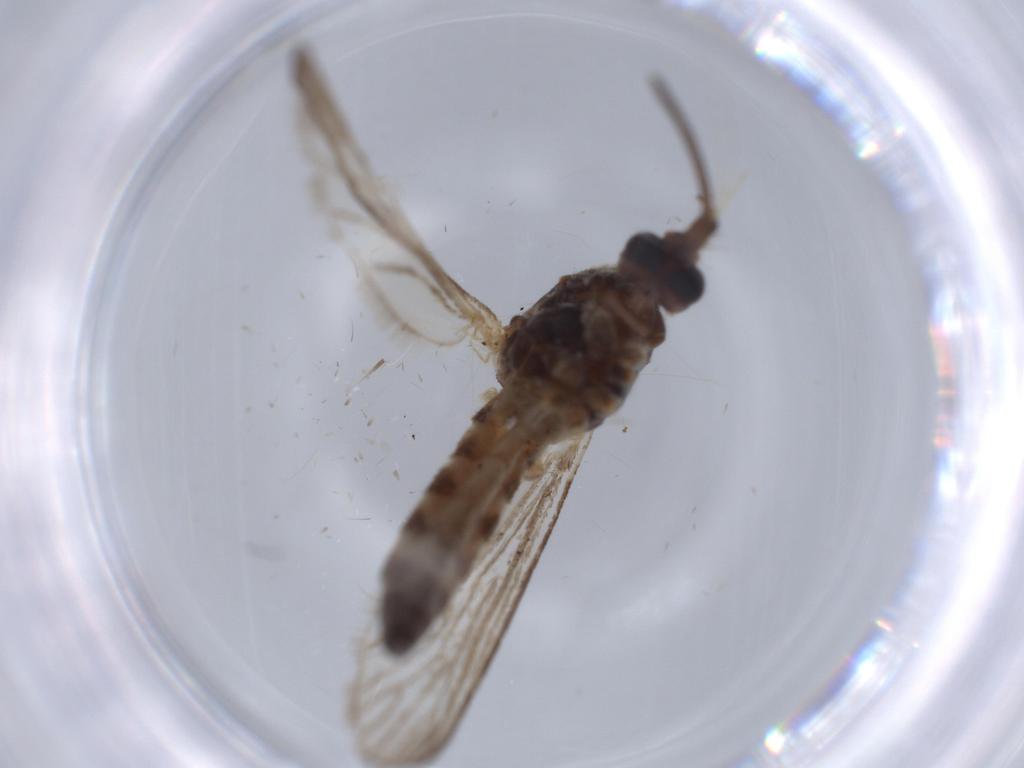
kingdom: Animalia
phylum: Arthropoda
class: Insecta
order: Diptera
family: Culicidae
